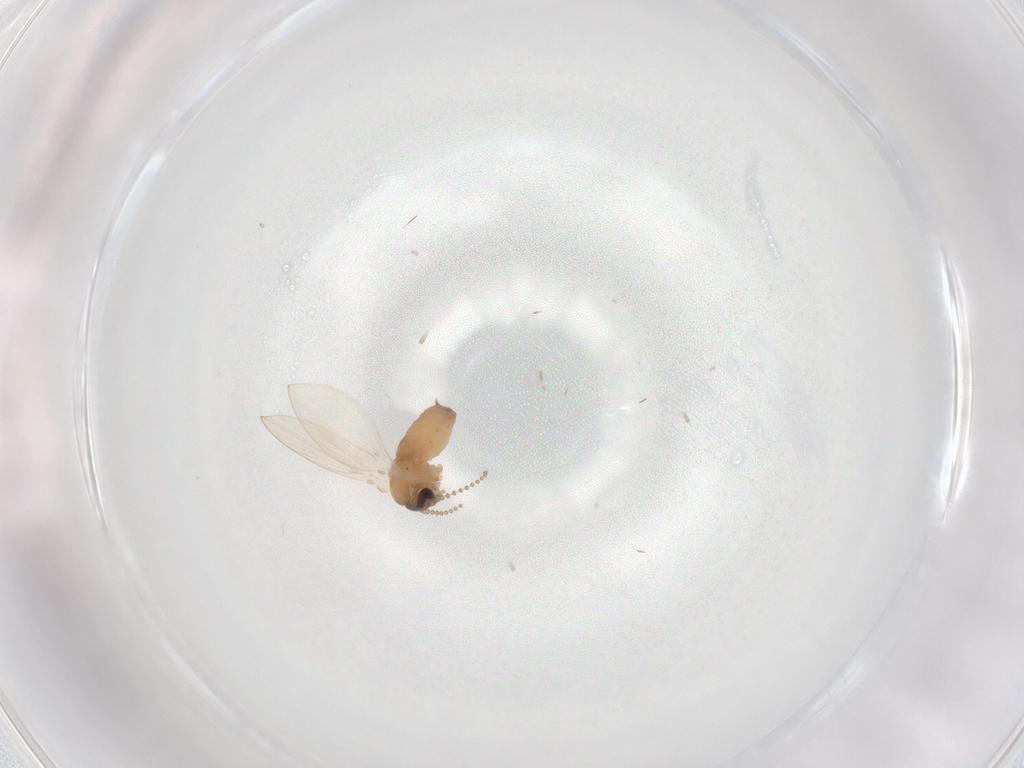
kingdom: Animalia
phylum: Arthropoda
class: Insecta
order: Diptera
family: Psychodidae
